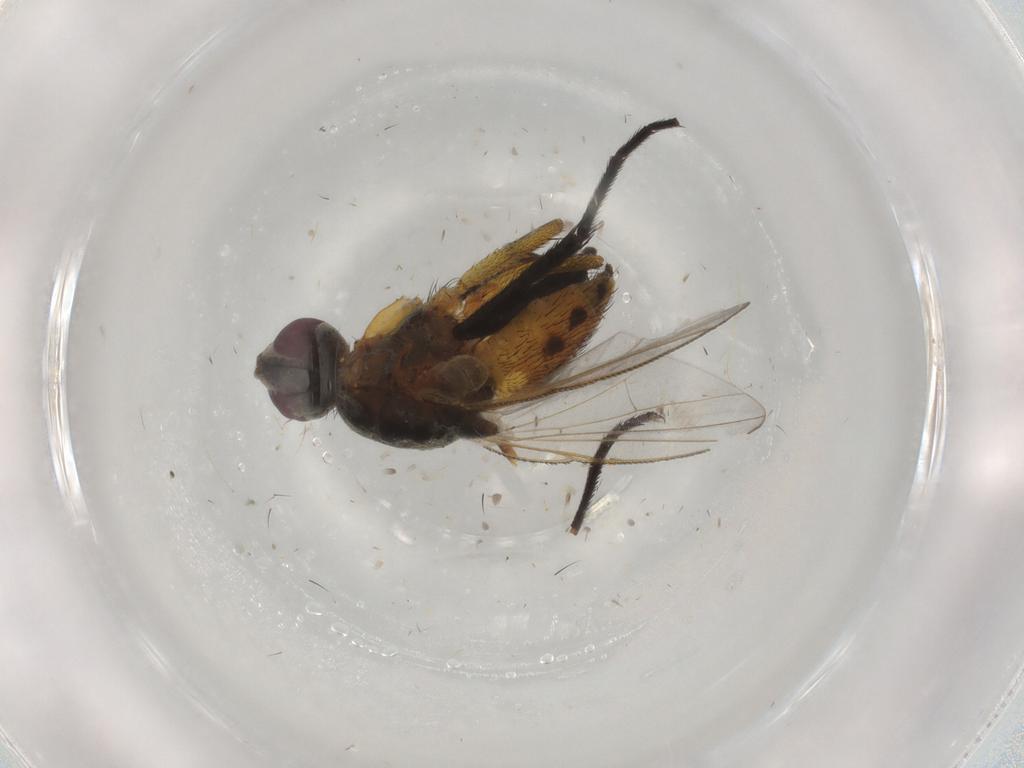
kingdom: Animalia
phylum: Arthropoda
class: Insecta
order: Diptera
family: Muscidae
